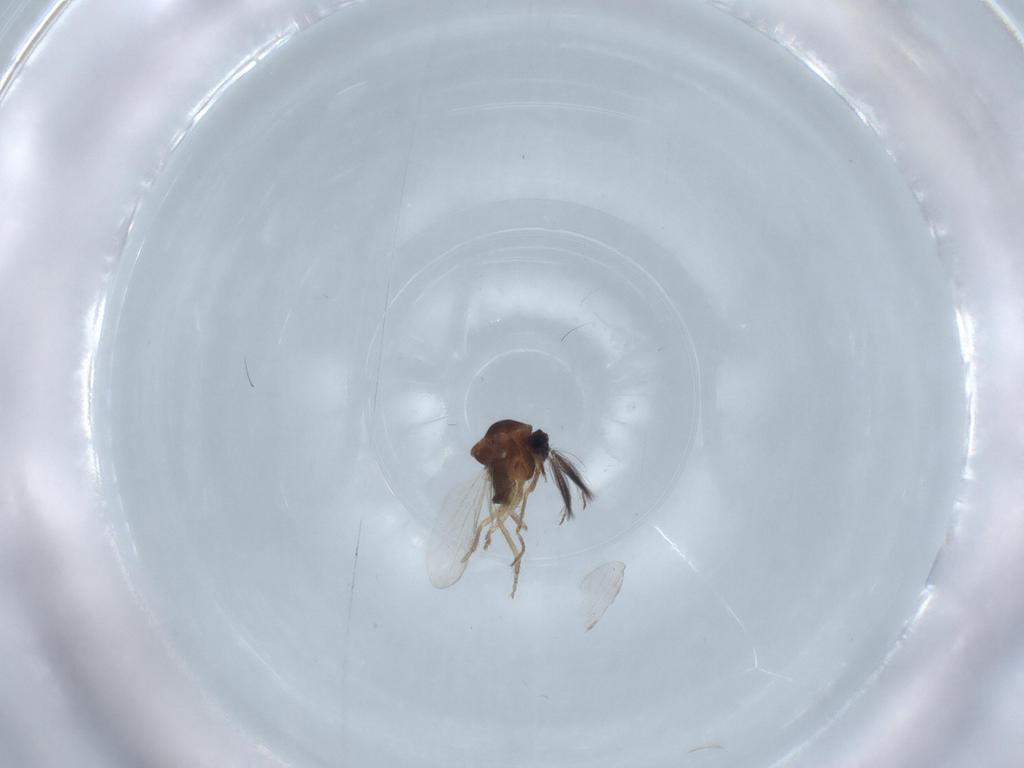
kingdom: Animalia
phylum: Arthropoda
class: Insecta
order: Diptera
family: Ceratopogonidae
